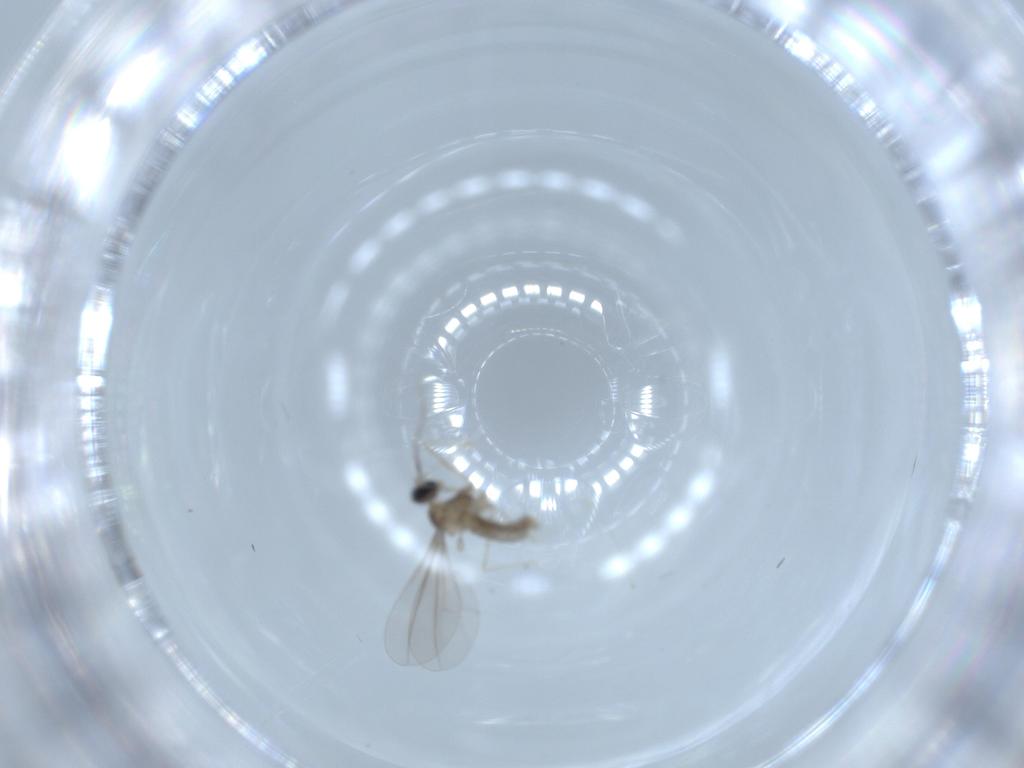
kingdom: Animalia
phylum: Arthropoda
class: Insecta
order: Diptera
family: Cecidomyiidae
